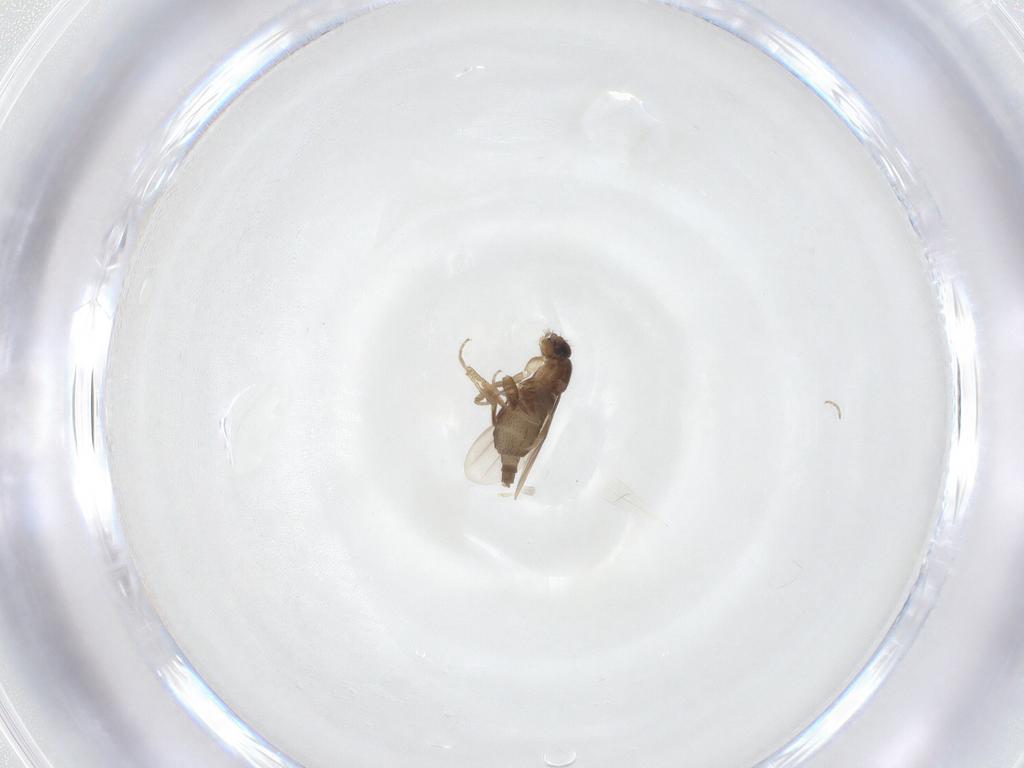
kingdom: Animalia
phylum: Arthropoda
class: Insecta
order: Diptera
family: Phoridae
